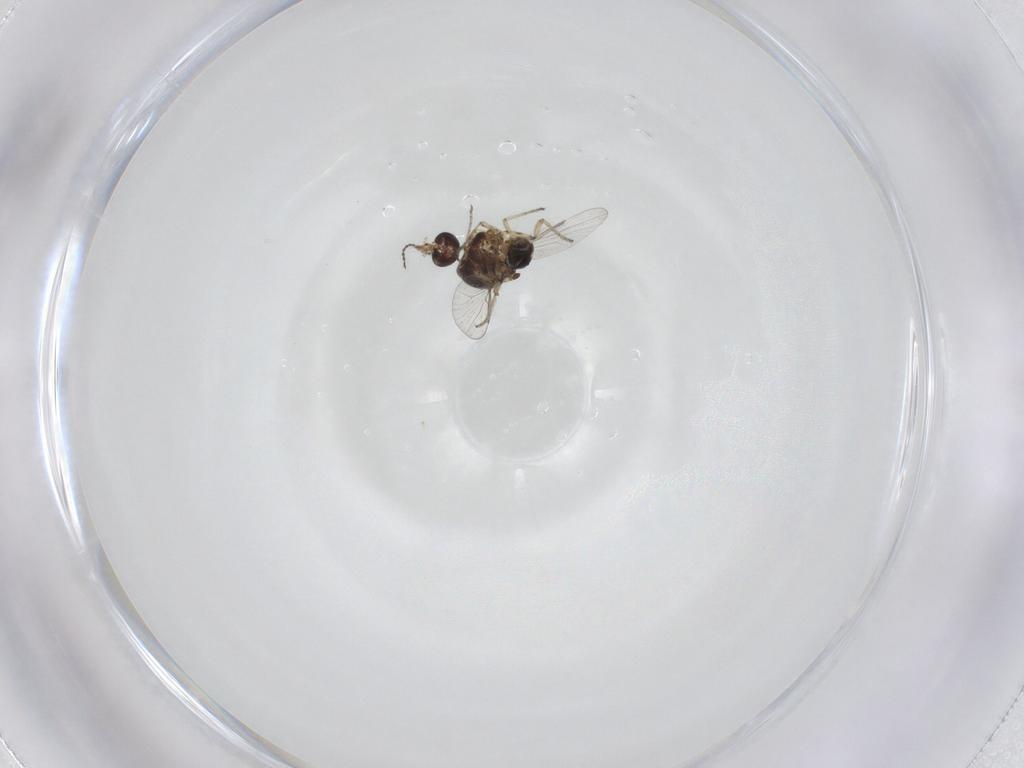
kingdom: Animalia
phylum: Arthropoda
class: Insecta
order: Diptera
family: Ceratopogonidae
